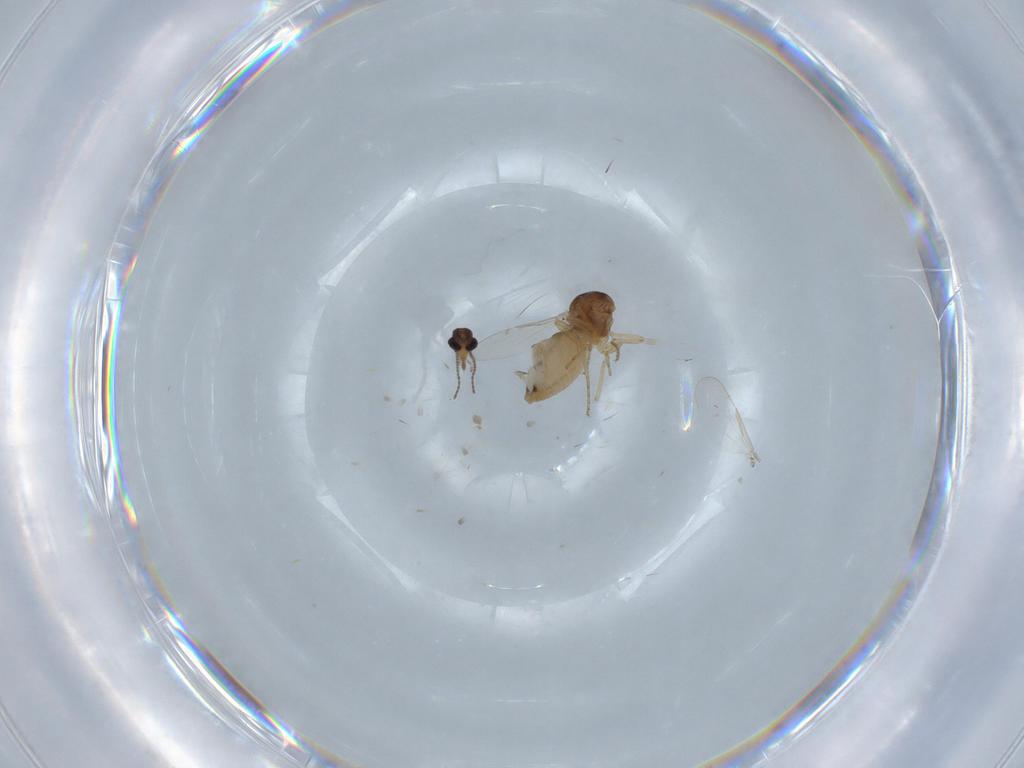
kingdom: Animalia
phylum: Arthropoda
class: Insecta
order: Diptera
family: Ceratopogonidae
